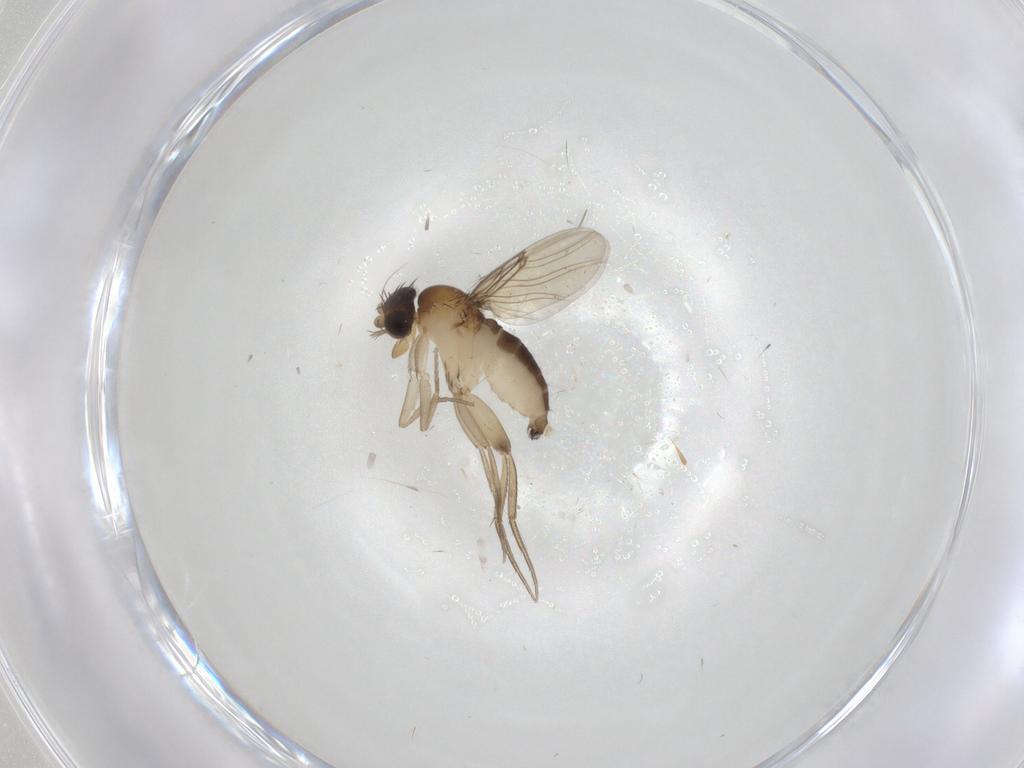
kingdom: Animalia
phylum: Arthropoda
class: Insecta
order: Diptera
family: Phoridae
